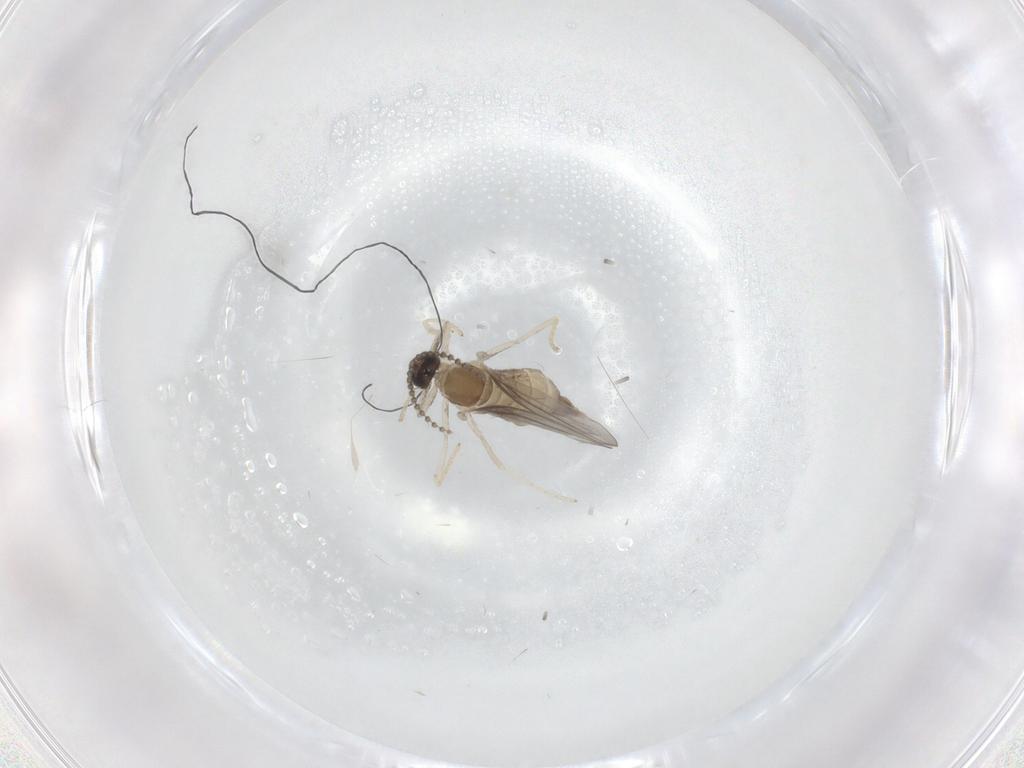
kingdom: Animalia
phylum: Arthropoda
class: Insecta
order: Diptera
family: Cecidomyiidae
